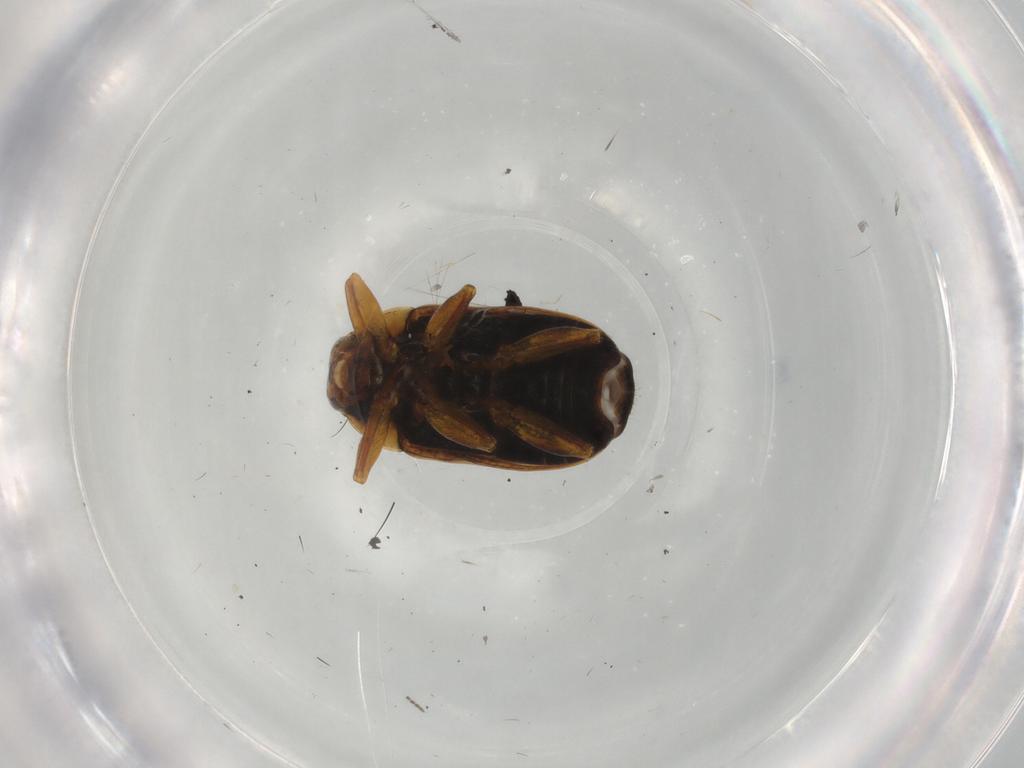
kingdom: Animalia
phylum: Arthropoda
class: Insecta
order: Coleoptera
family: Chrysomelidae
